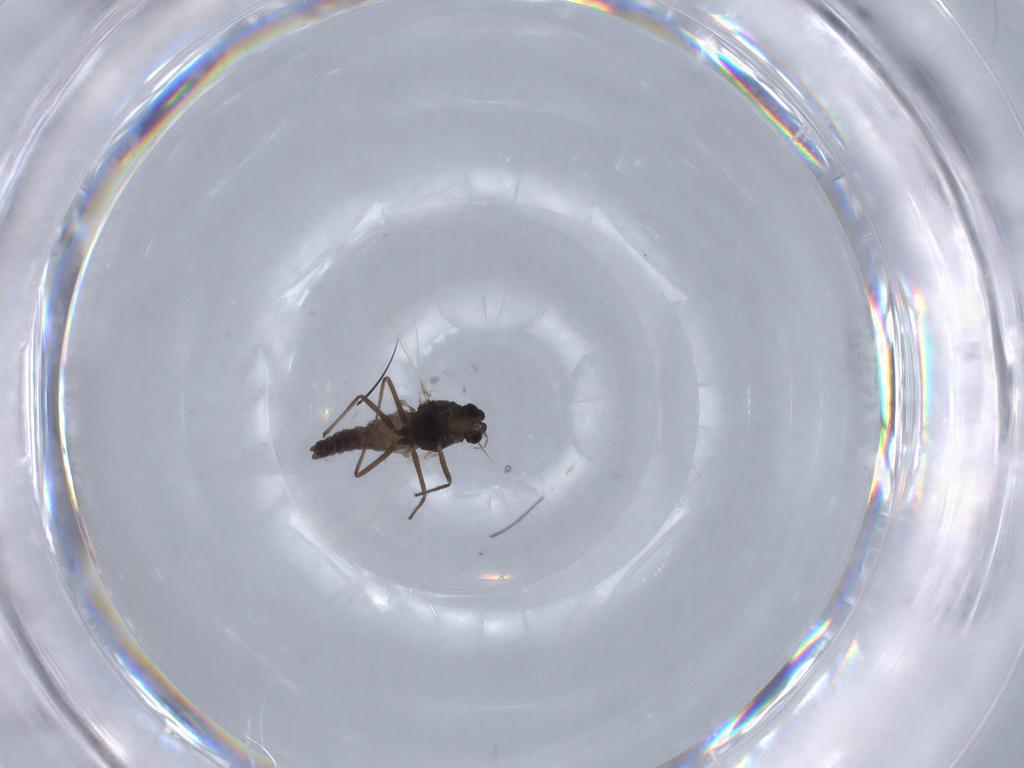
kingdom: Animalia
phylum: Arthropoda
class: Insecta
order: Diptera
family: Chironomidae
